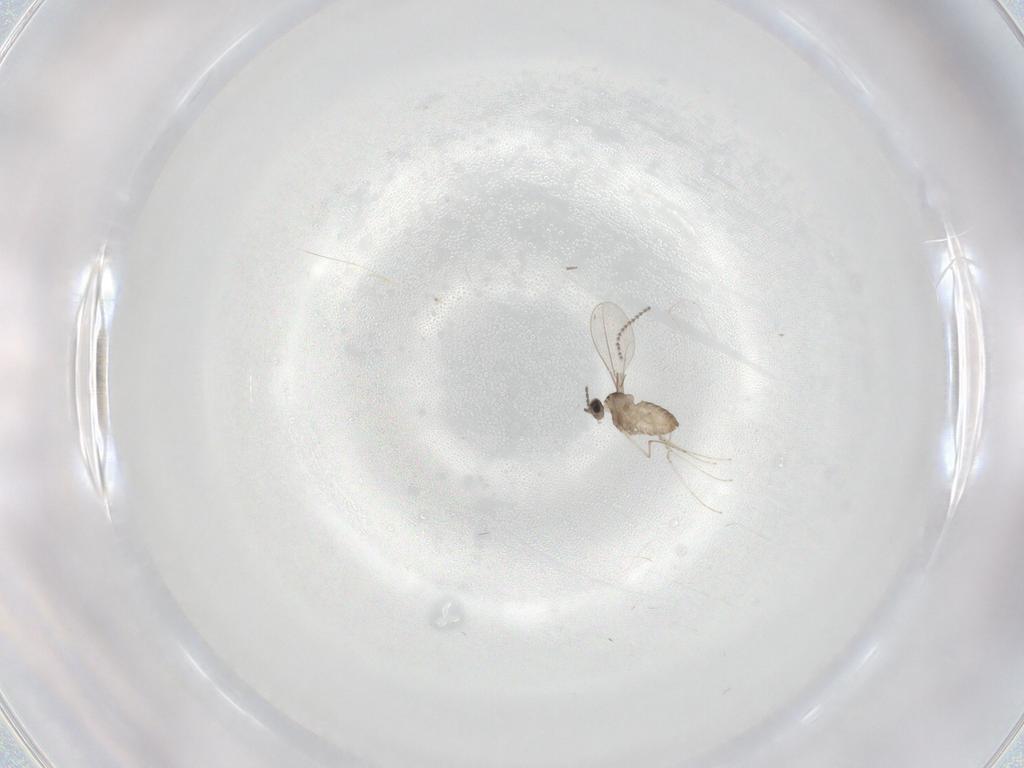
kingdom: Animalia
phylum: Arthropoda
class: Insecta
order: Diptera
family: Cecidomyiidae
